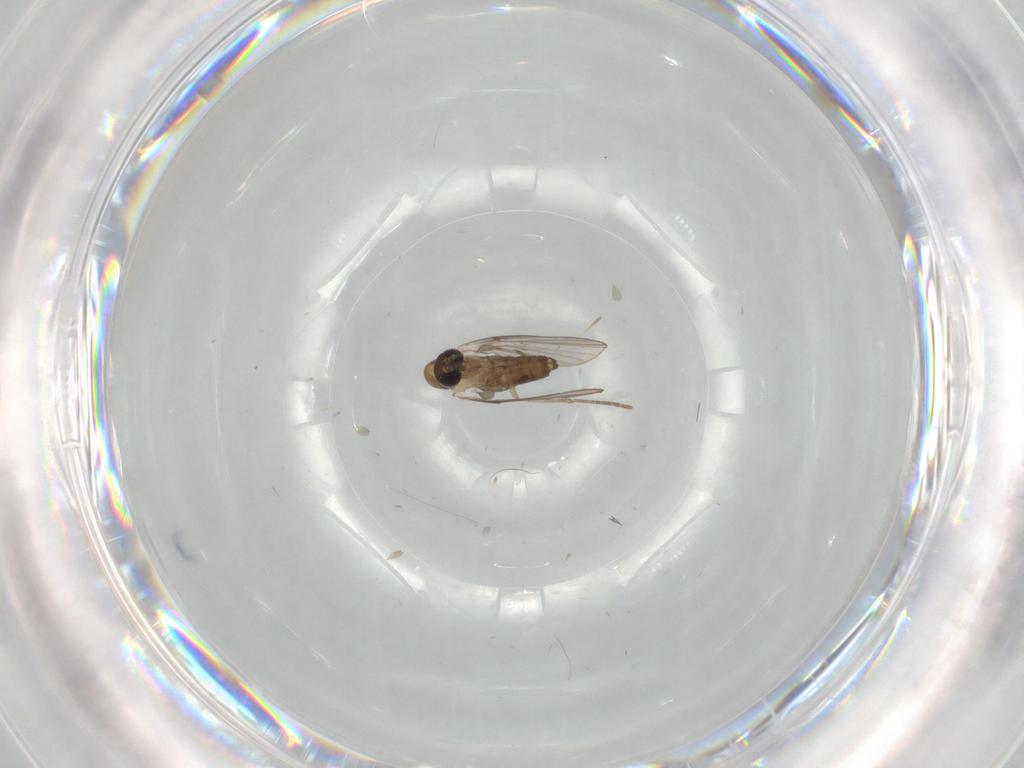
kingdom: Animalia
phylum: Arthropoda
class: Insecta
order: Diptera
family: Psychodidae
